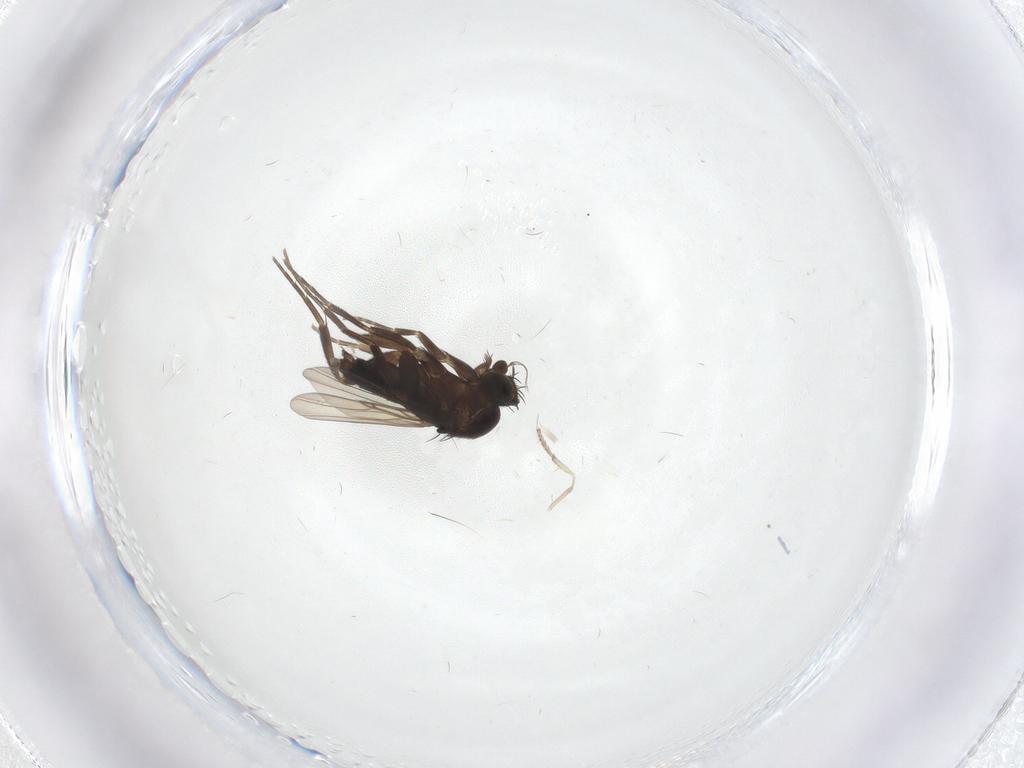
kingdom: Animalia
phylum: Arthropoda
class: Insecta
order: Diptera
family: Phoridae
